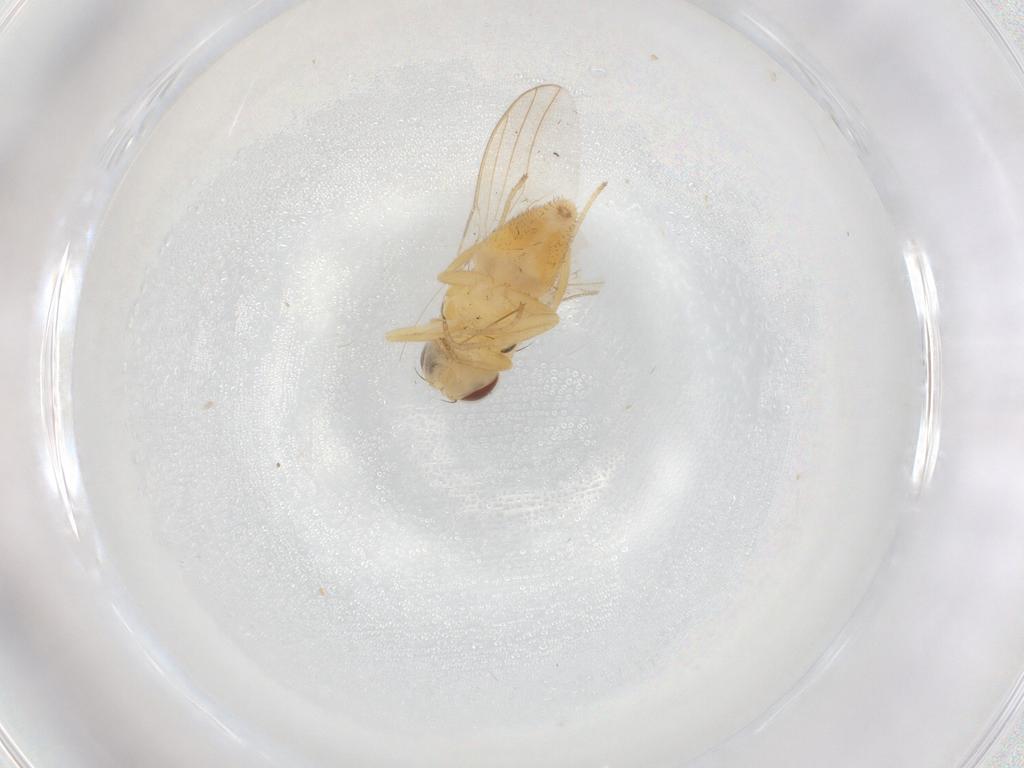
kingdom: Animalia
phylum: Arthropoda
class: Insecta
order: Diptera
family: Chloropidae
